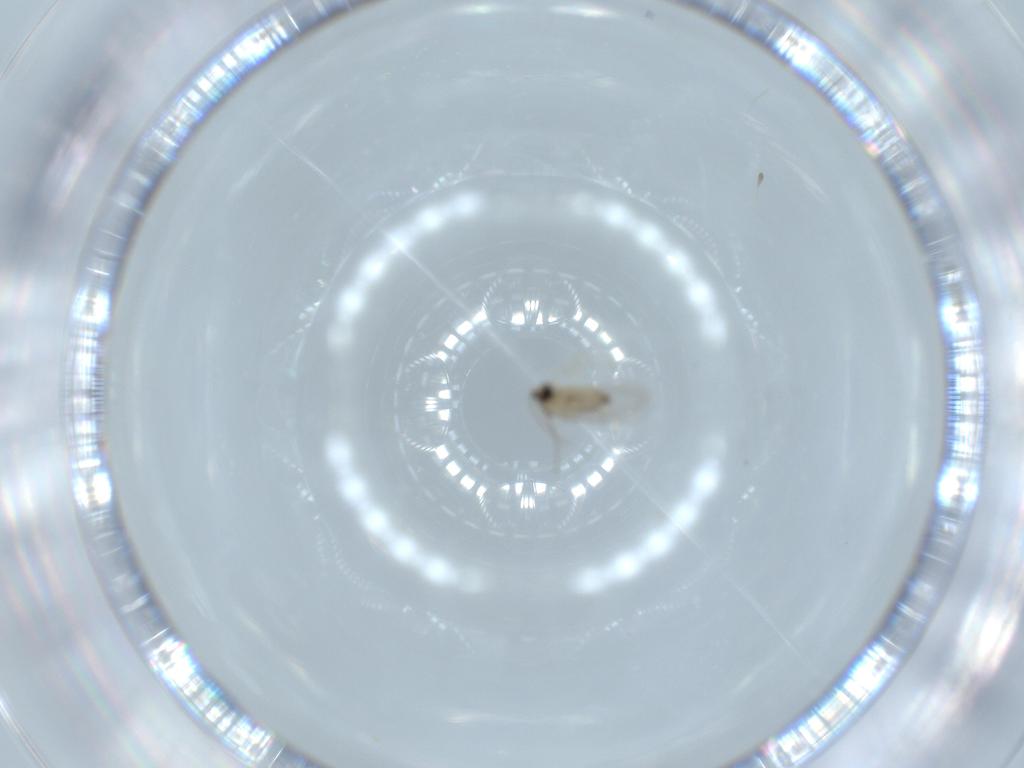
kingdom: Animalia
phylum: Arthropoda
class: Insecta
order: Diptera
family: Cecidomyiidae
